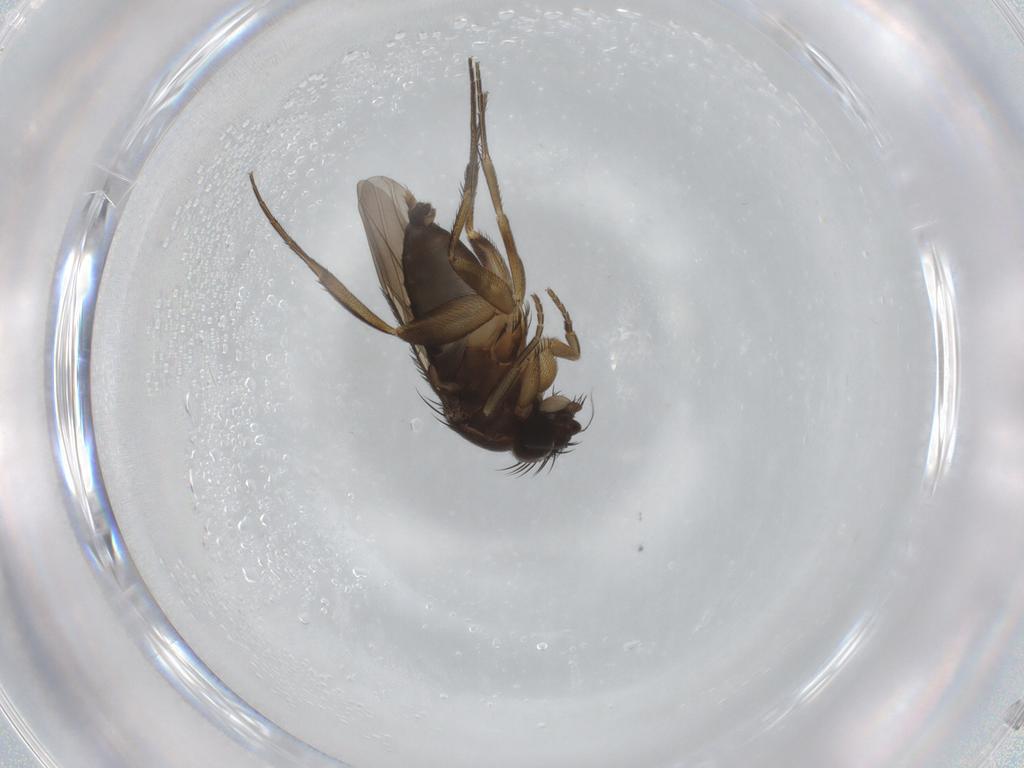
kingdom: Animalia
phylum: Arthropoda
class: Insecta
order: Diptera
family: Phoridae
